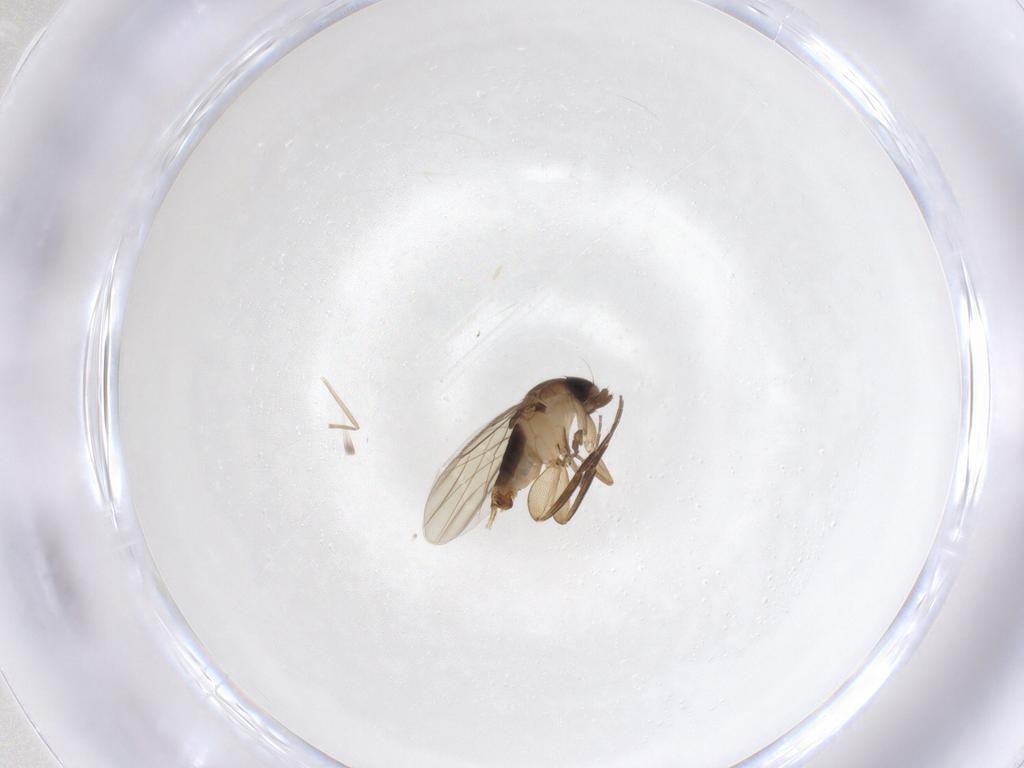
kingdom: Animalia
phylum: Arthropoda
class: Insecta
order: Diptera
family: Phoridae
